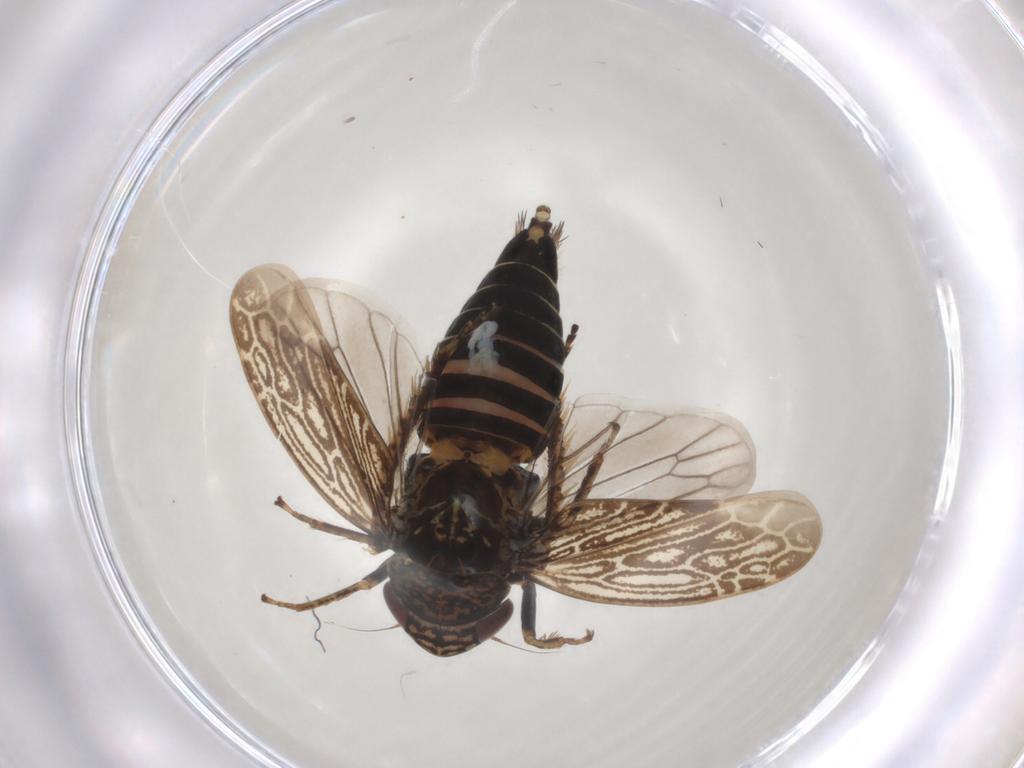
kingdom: Animalia
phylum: Arthropoda
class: Insecta
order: Hemiptera
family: Cicadellidae
